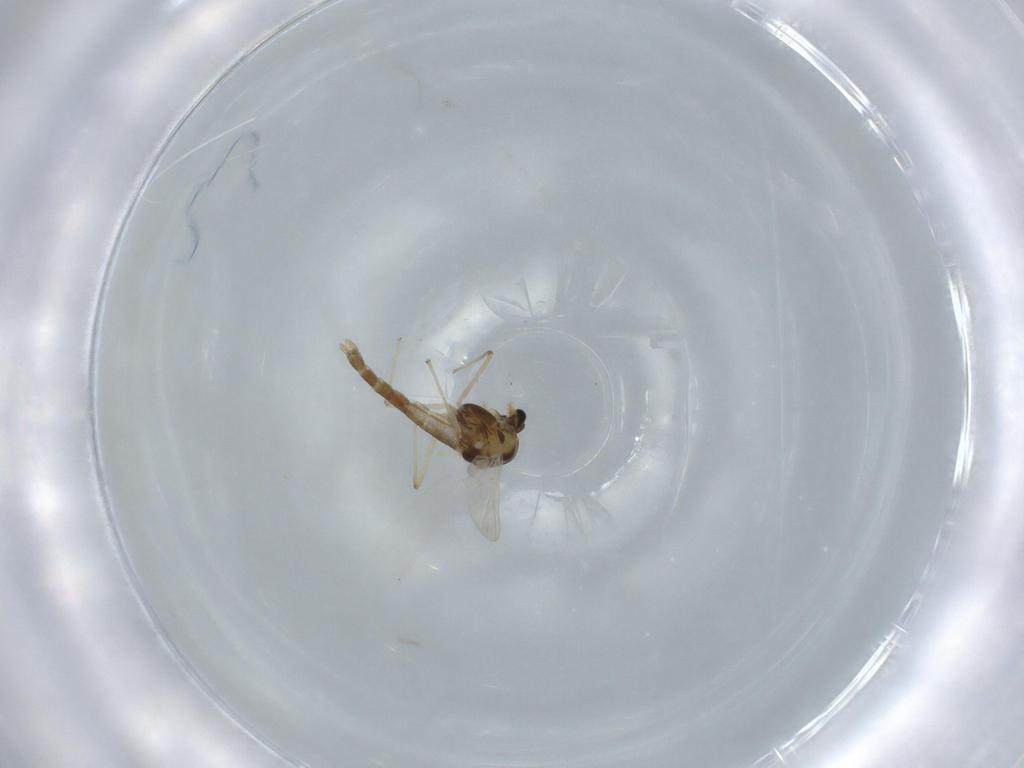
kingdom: Animalia
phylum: Arthropoda
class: Insecta
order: Diptera
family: Chironomidae
